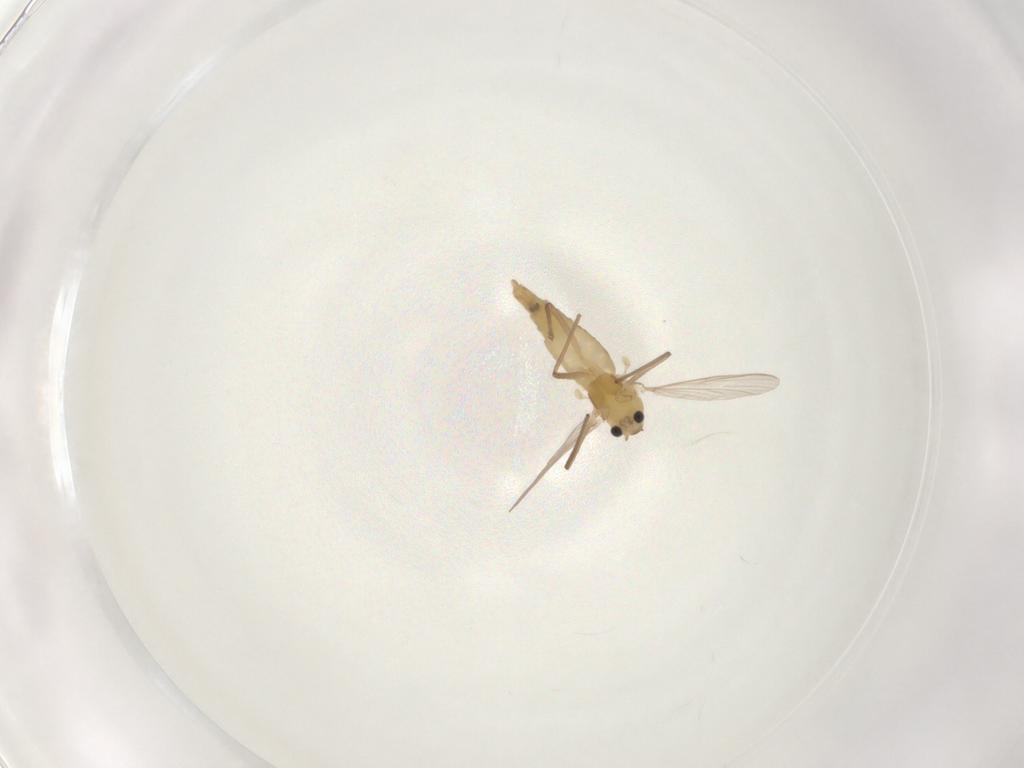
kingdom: Animalia
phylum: Arthropoda
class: Insecta
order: Diptera
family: Chironomidae
